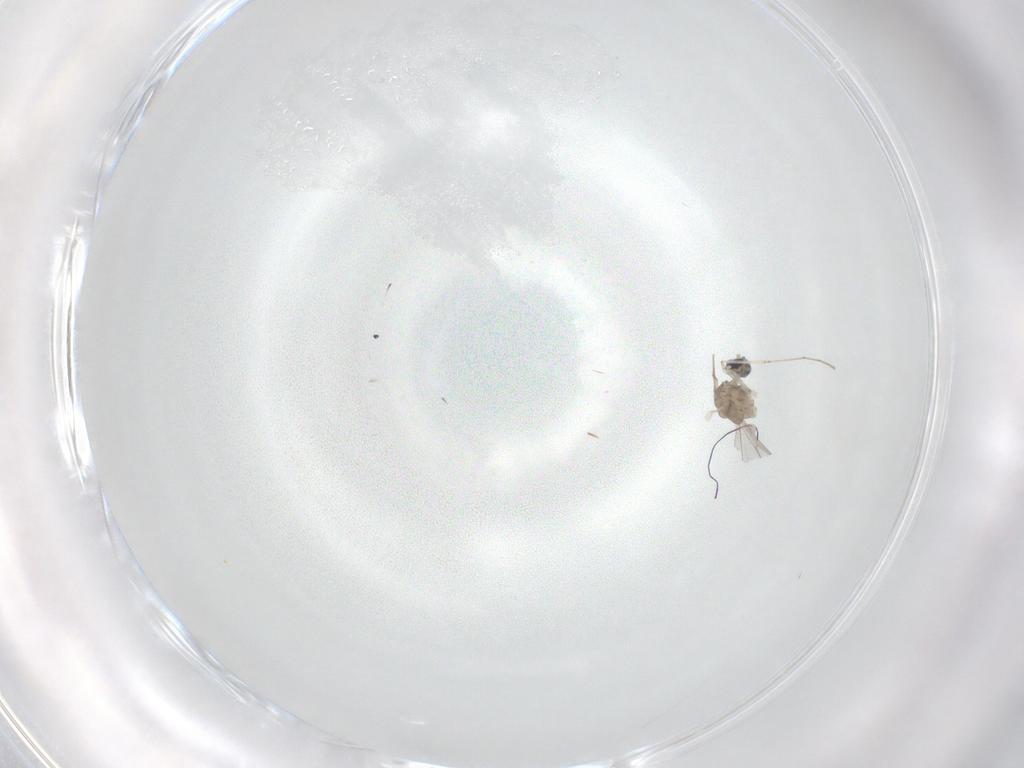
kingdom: Animalia
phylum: Arthropoda
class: Insecta
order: Diptera
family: Cecidomyiidae
